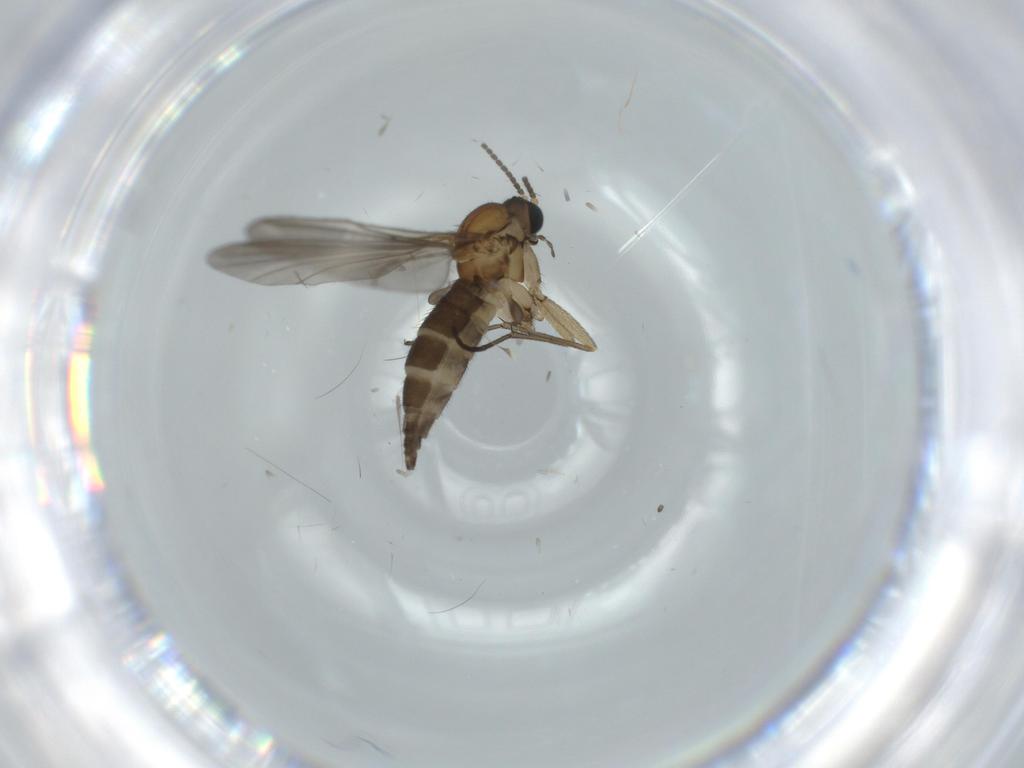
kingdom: Animalia
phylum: Arthropoda
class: Insecta
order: Diptera
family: Sciaridae
